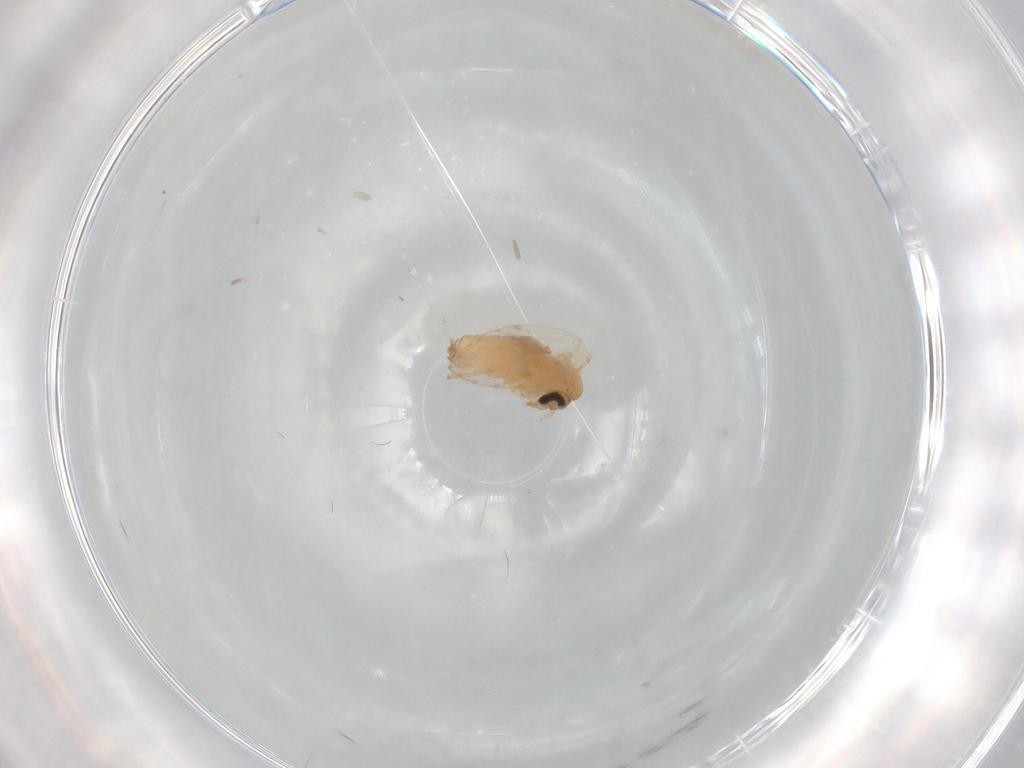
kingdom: Animalia
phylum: Arthropoda
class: Insecta
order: Diptera
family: Psychodidae
